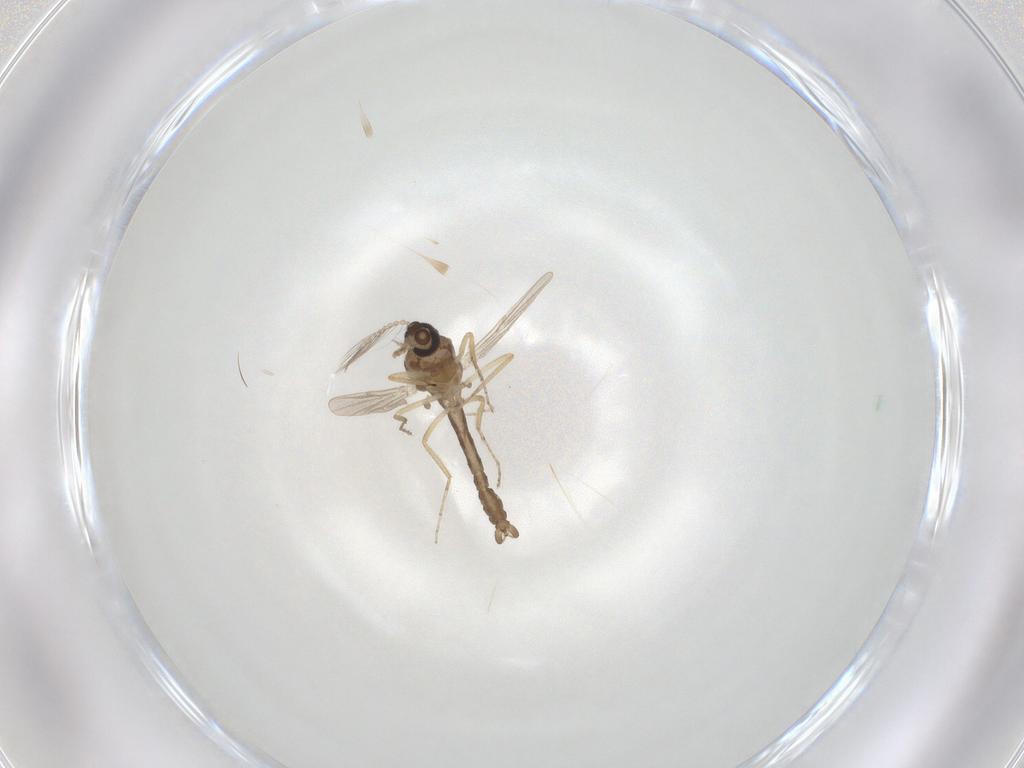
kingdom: Animalia
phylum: Arthropoda
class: Insecta
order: Diptera
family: Ceratopogonidae
